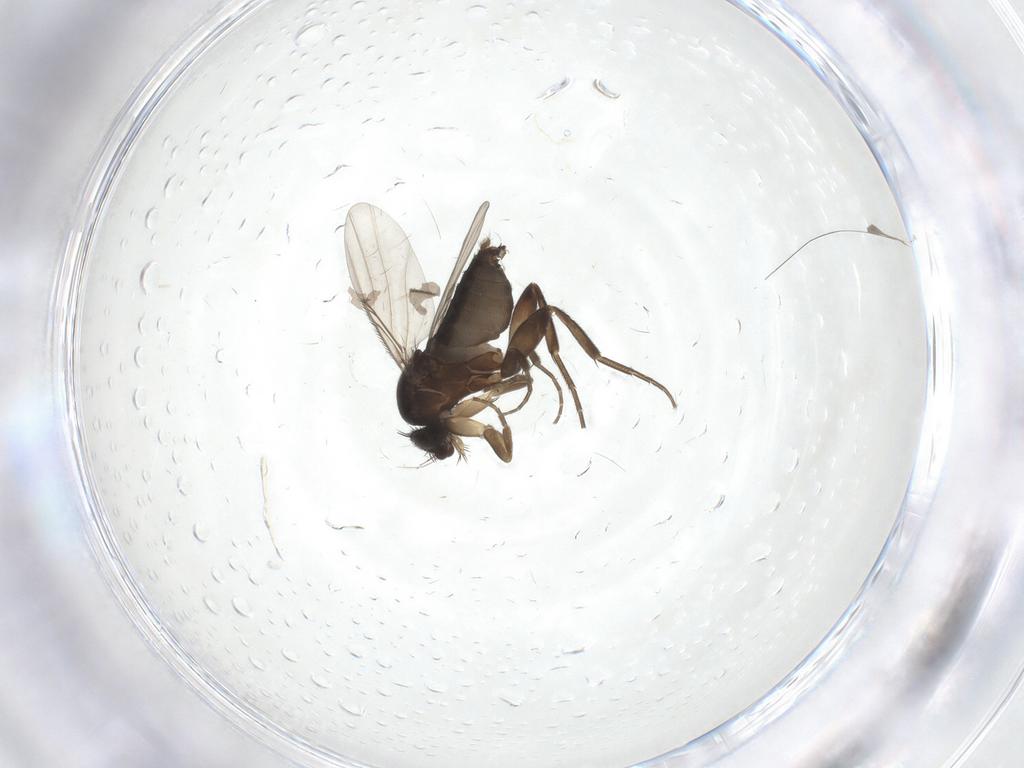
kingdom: Animalia
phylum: Arthropoda
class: Insecta
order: Diptera
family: Phoridae
